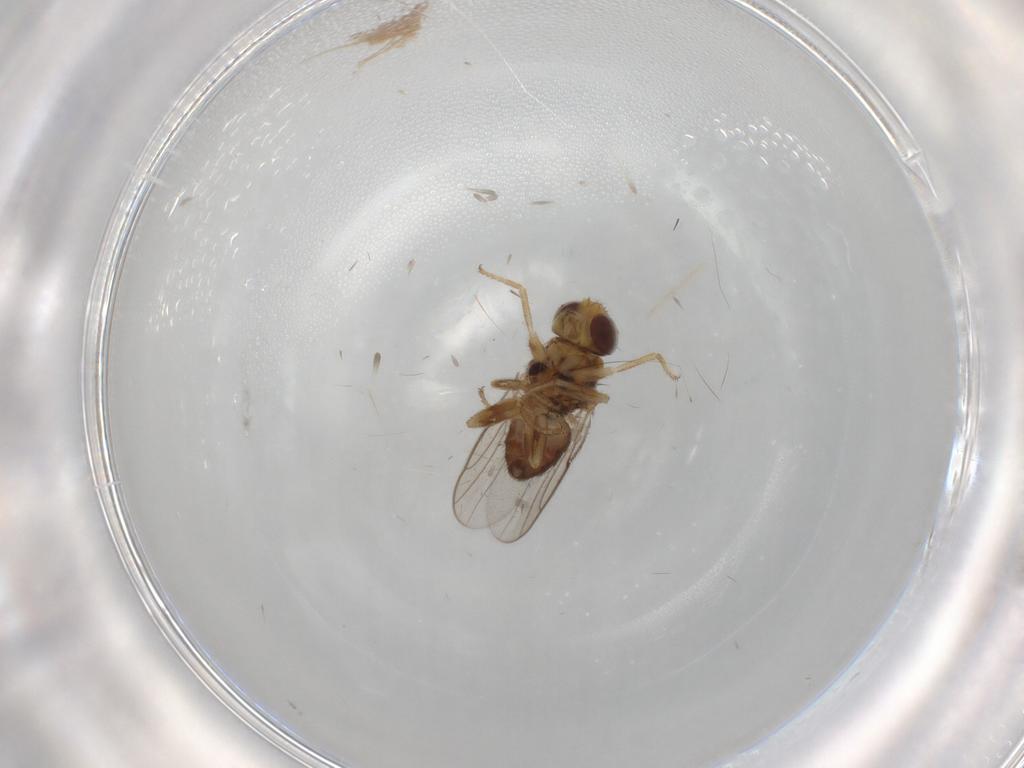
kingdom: Animalia
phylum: Arthropoda
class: Insecta
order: Diptera
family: Chloropidae
